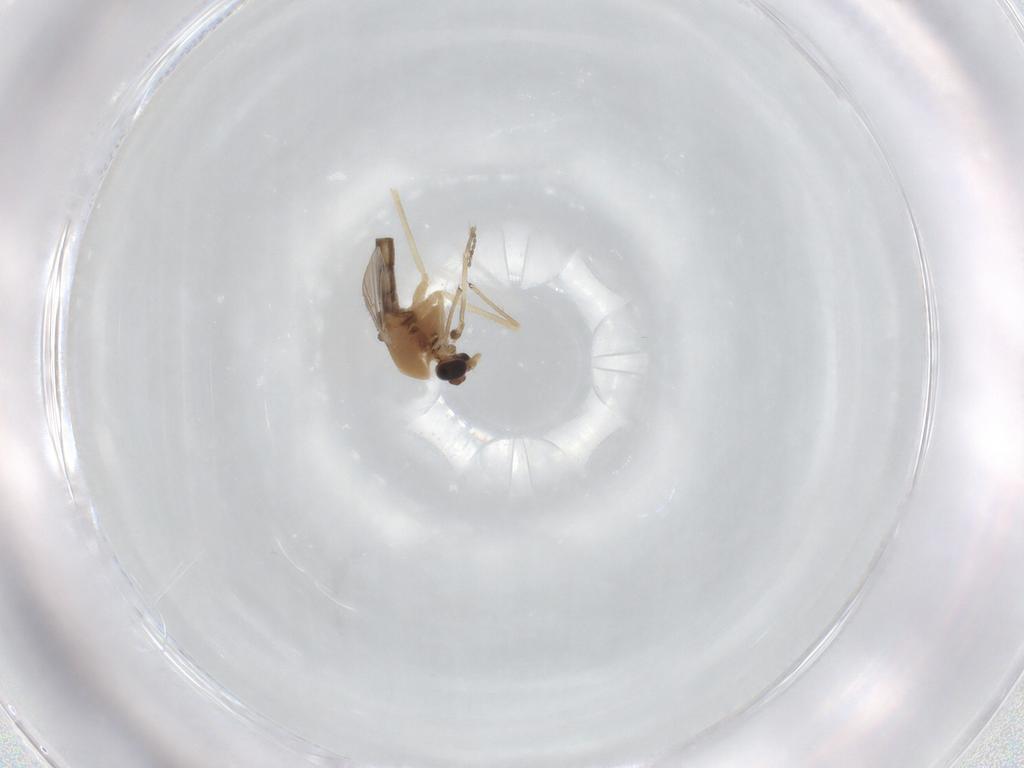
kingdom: Animalia
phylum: Arthropoda
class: Insecta
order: Diptera
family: Chironomidae
